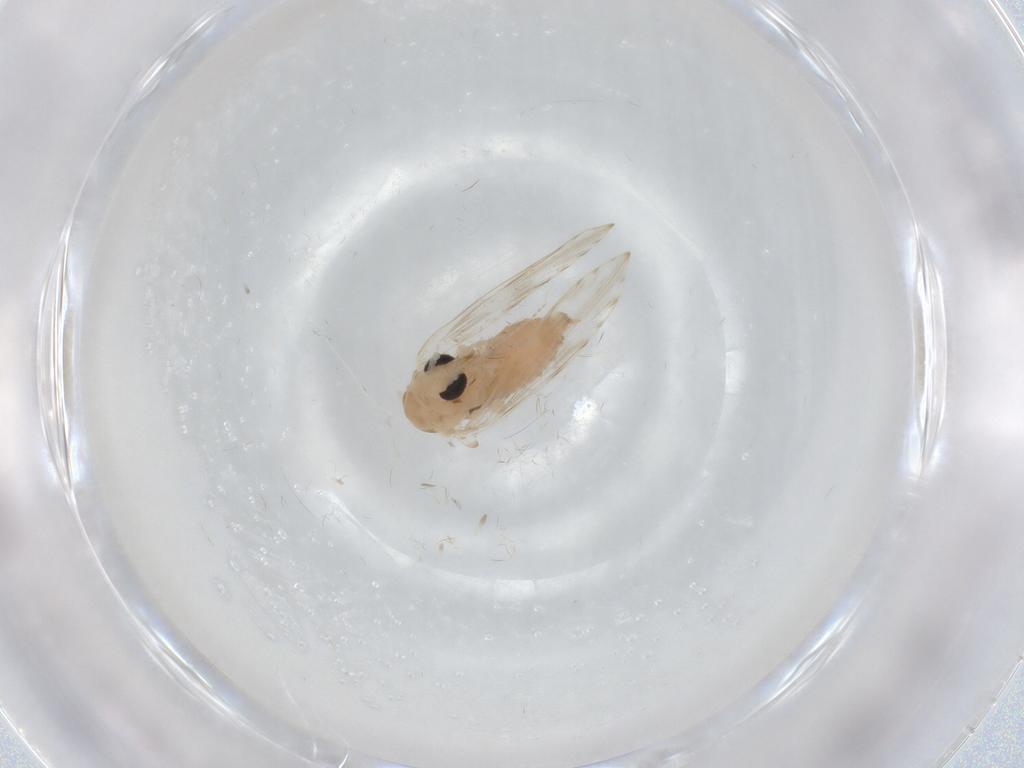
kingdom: Animalia
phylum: Arthropoda
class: Insecta
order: Diptera
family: Psychodidae
